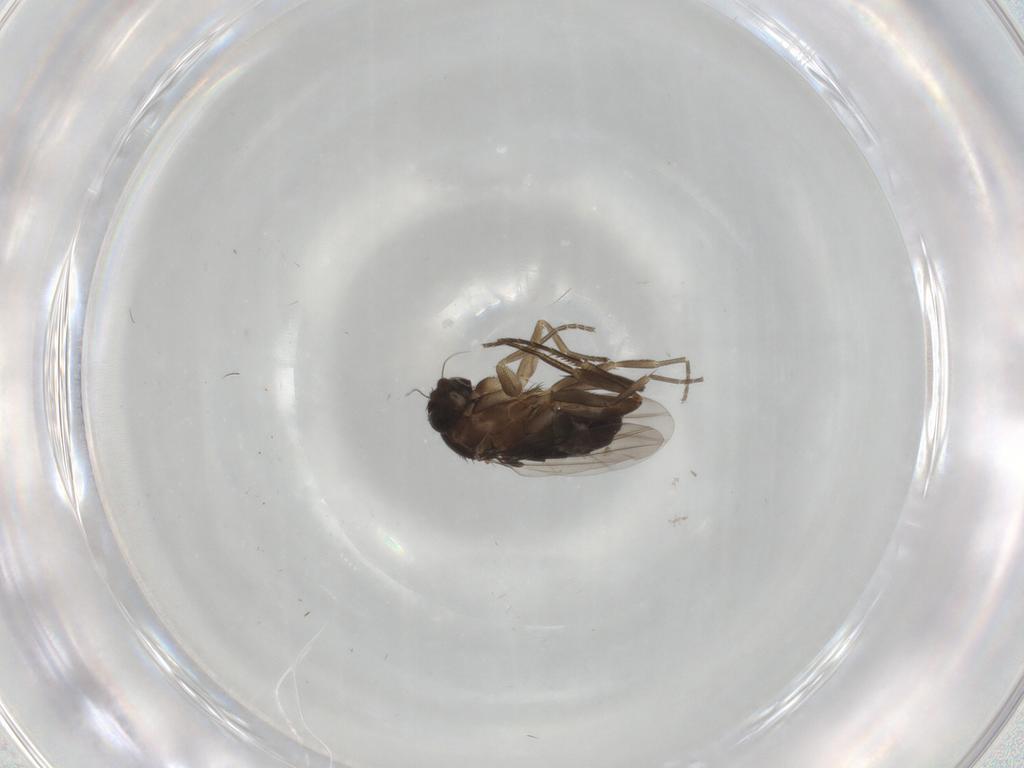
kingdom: Animalia
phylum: Arthropoda
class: Insecta
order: Diptera
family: Phoridae
